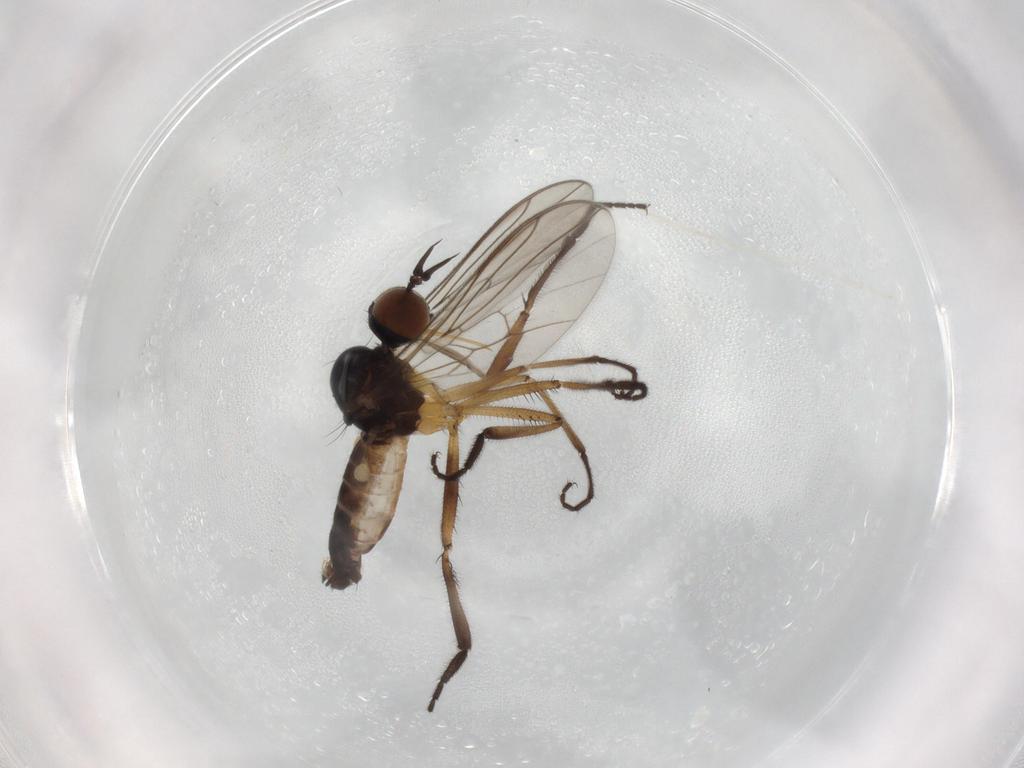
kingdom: Animalia
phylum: Arthropoda
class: Insecta
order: Diptera
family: Empididae
